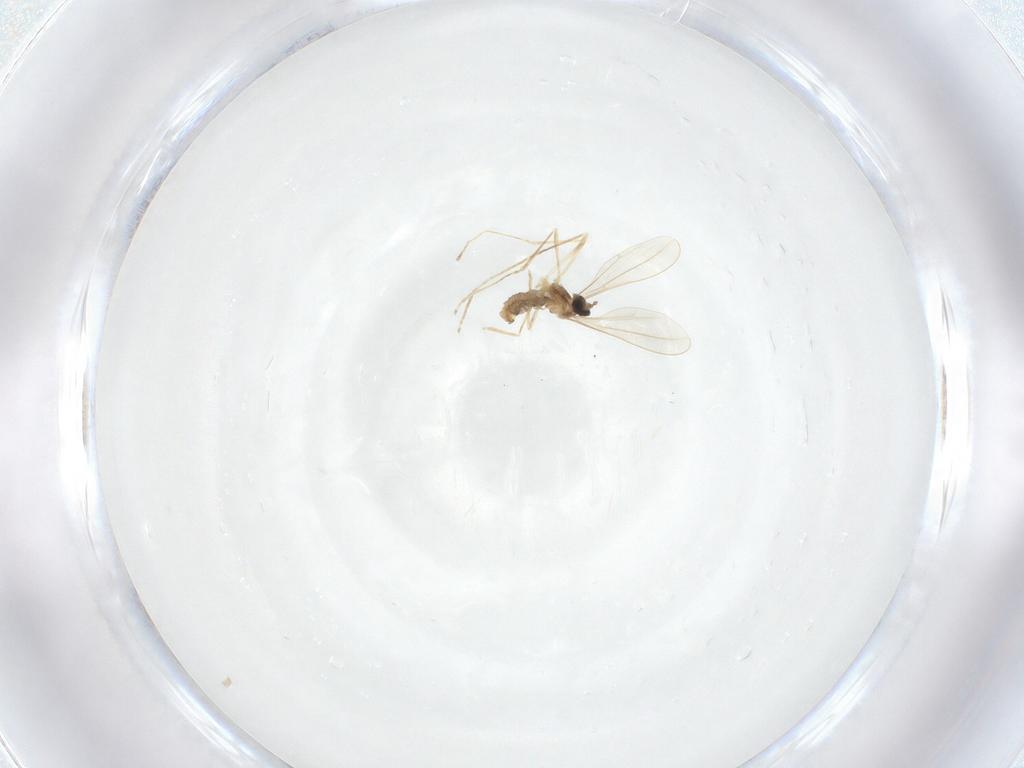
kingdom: Animalia
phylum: Arthropoda
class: Insecta
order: Diptera
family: Cecidomyiidae
